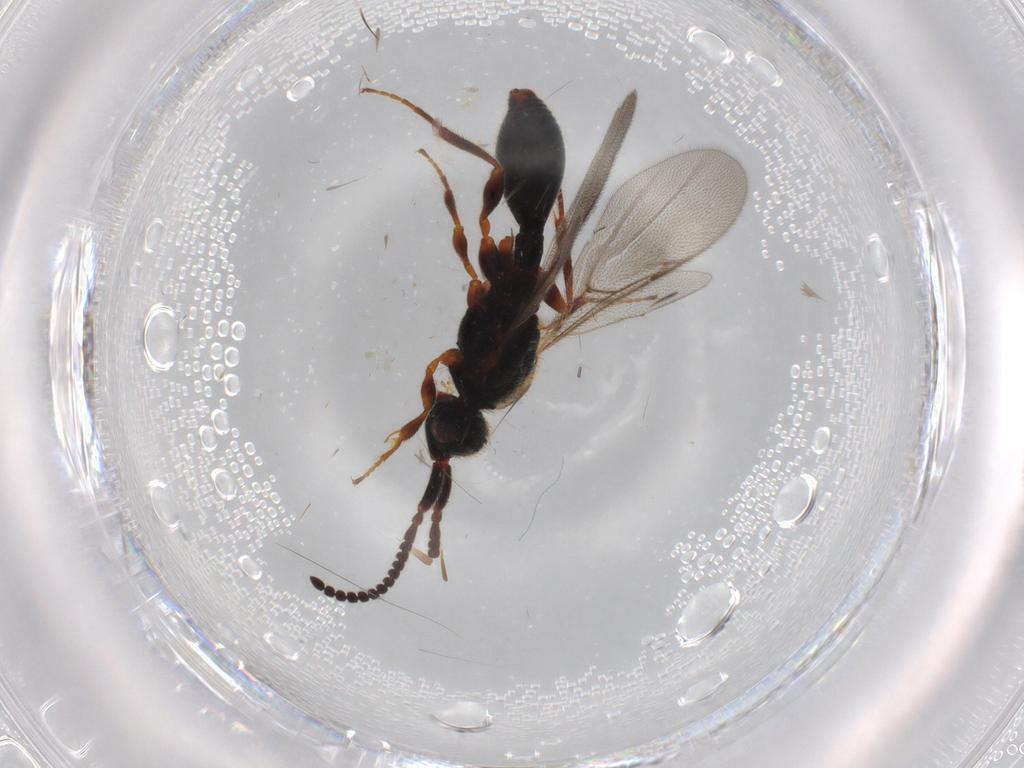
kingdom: Animalia
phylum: Arthropoda
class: Insecta
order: Hymenoptera
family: Formicidae
